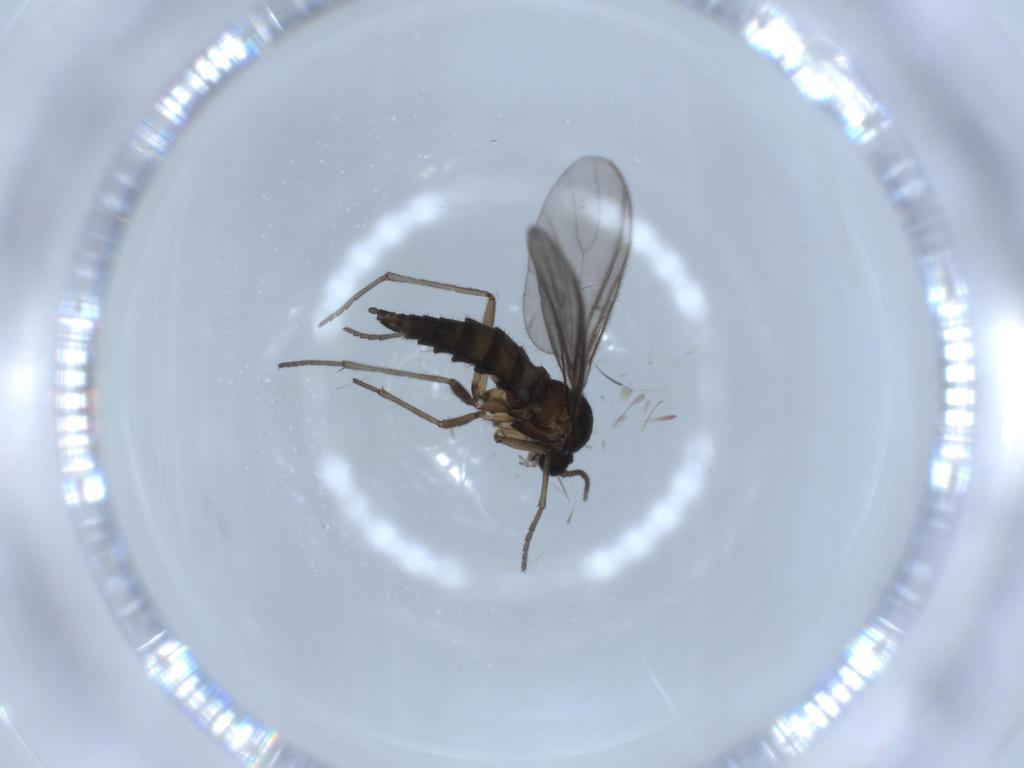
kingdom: Animalia
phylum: Arthropoda
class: Insecta
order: Diptera
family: Sciaridae
